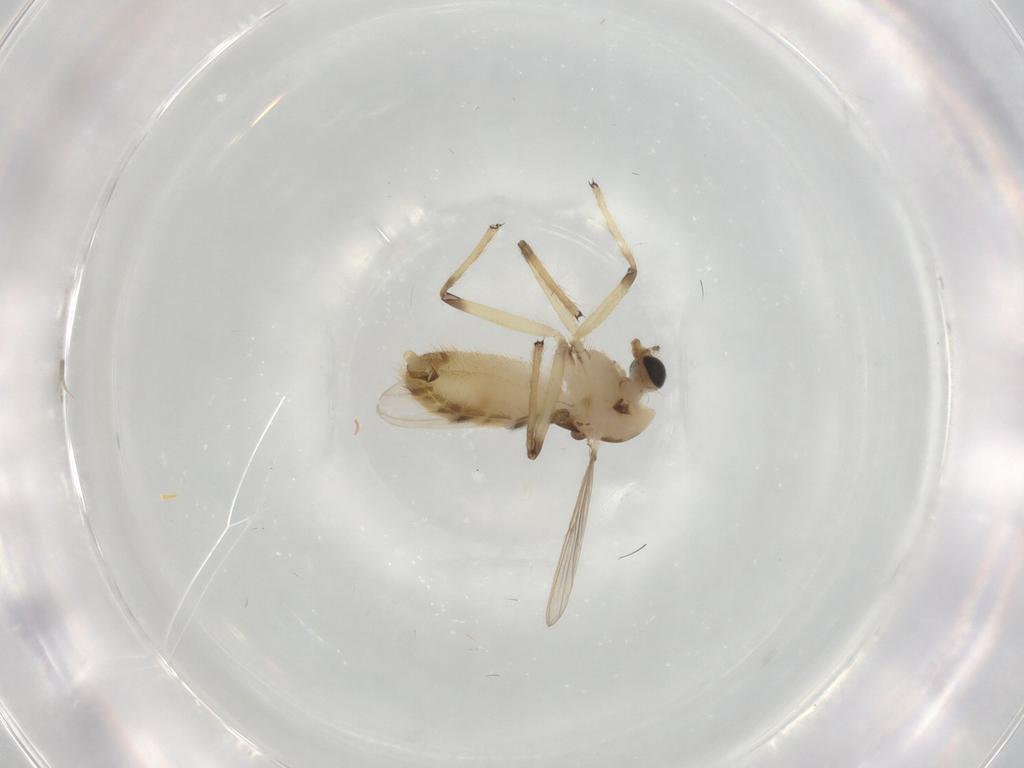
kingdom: Animalia
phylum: Arthropoda
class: Insecta
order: Diptera
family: Chironomidae
